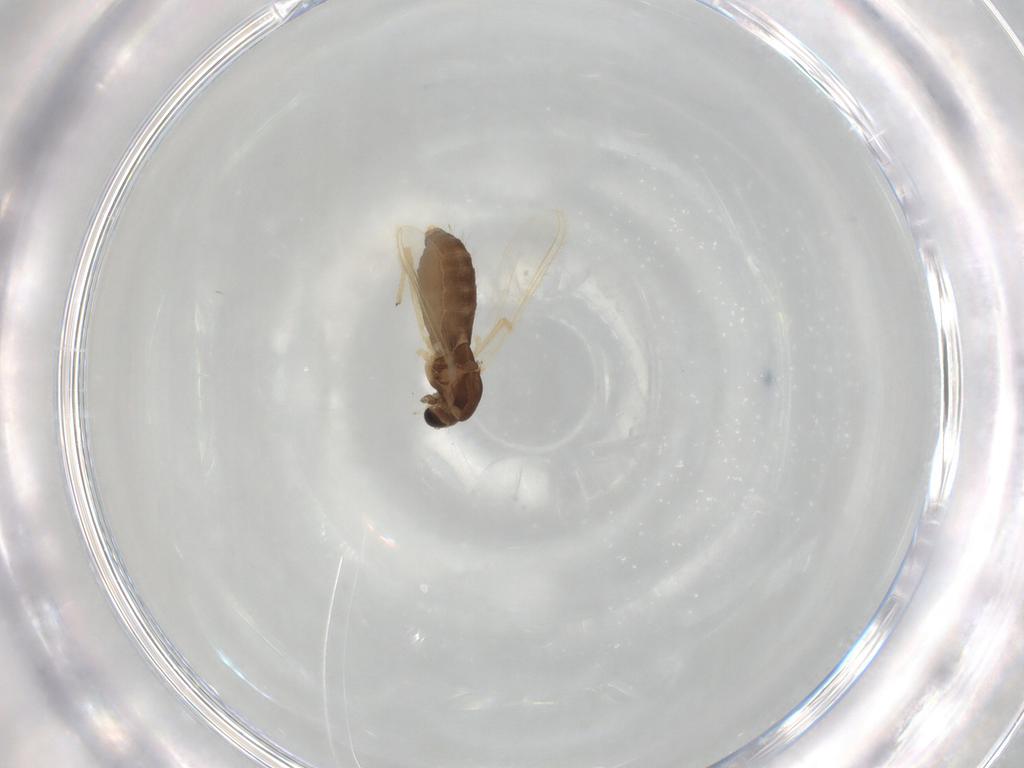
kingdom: Animalia
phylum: Arthropoda
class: Insecta
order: Diptera
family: Chironomidae
